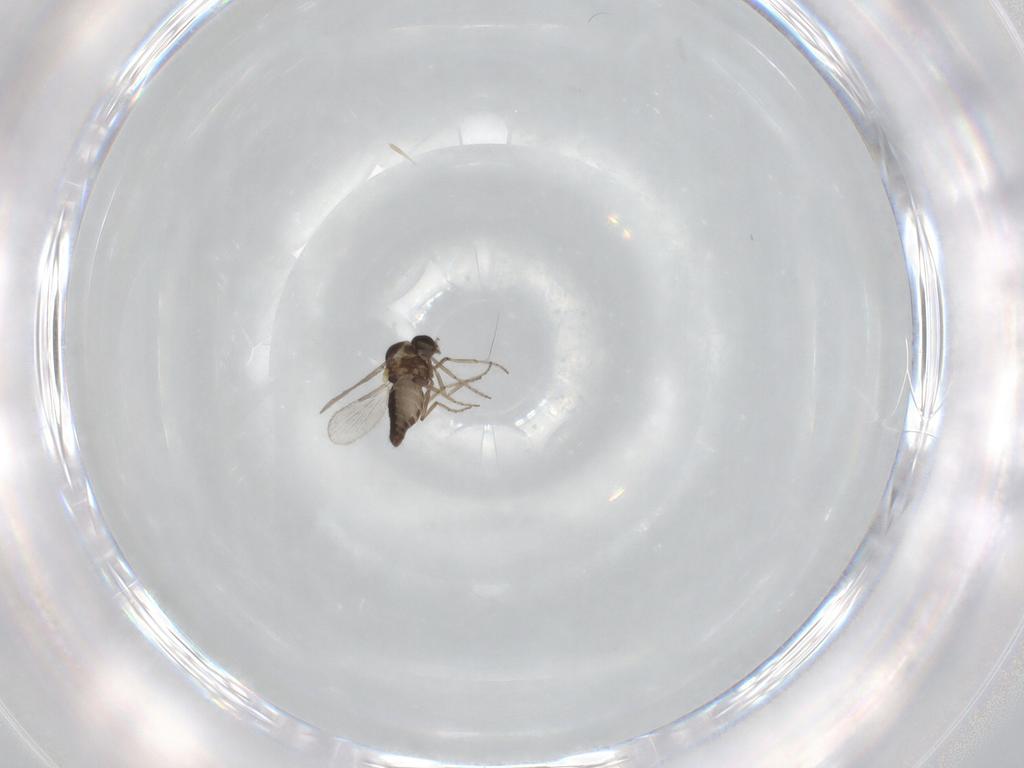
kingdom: Animalia
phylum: Arthropoda
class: Insecta
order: Diptera
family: Ceratopogonidae
